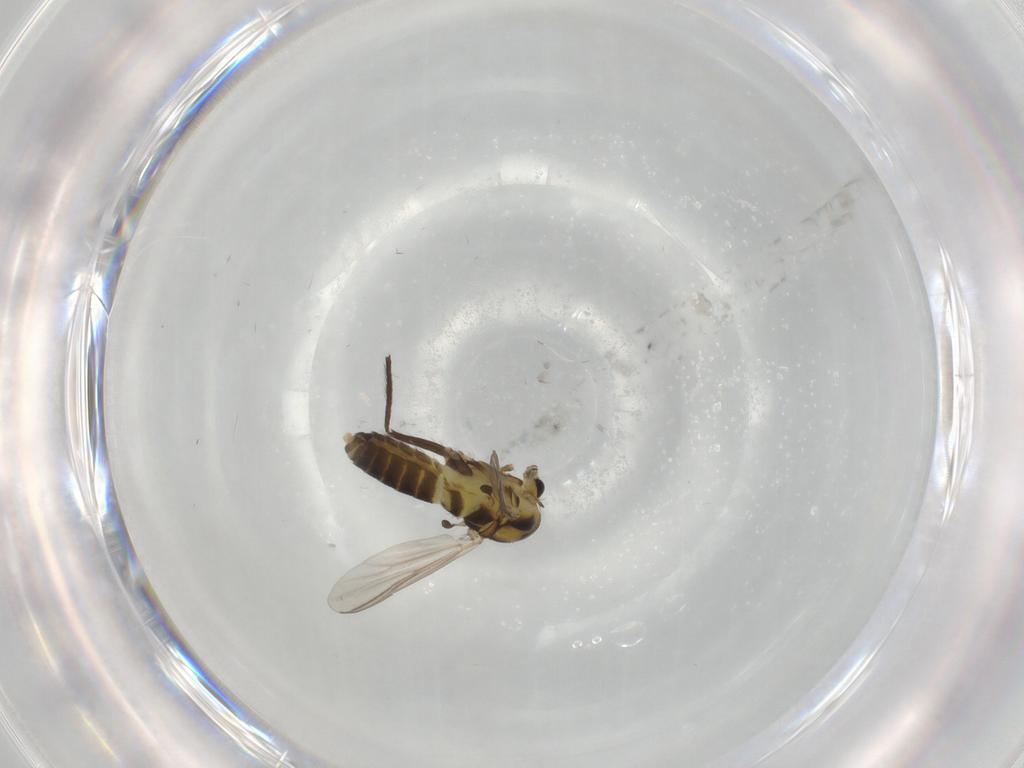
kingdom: Animalia
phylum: Arthropoda
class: Insecta
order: Diptera
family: Chironomidae
